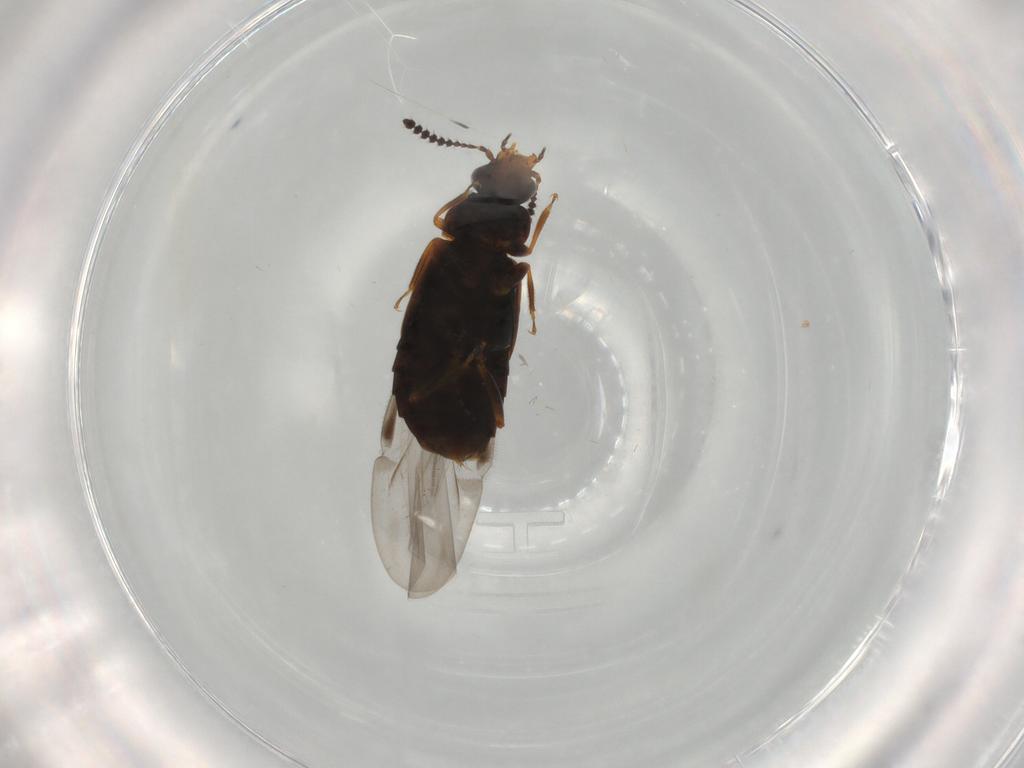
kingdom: Animalia
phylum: Arthropoda
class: Insecta
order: Coleoptera
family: Staphylinidae
